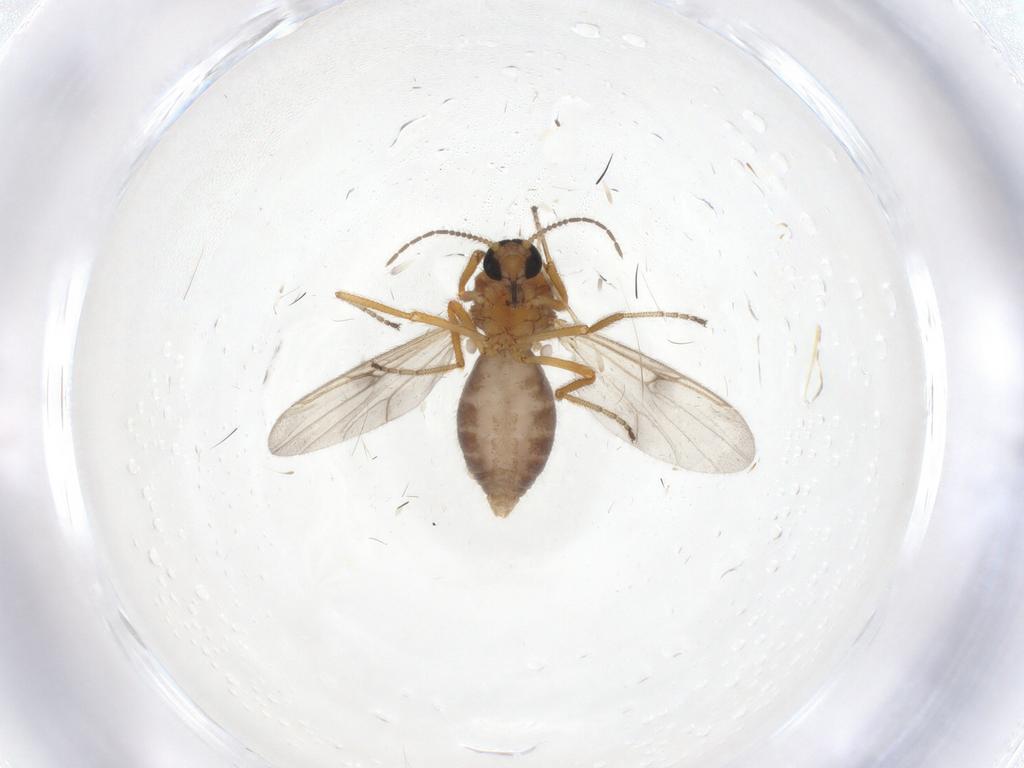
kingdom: Animalia
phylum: Arthropoda
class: Insecta
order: Diptera
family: Ceratopogonidae
